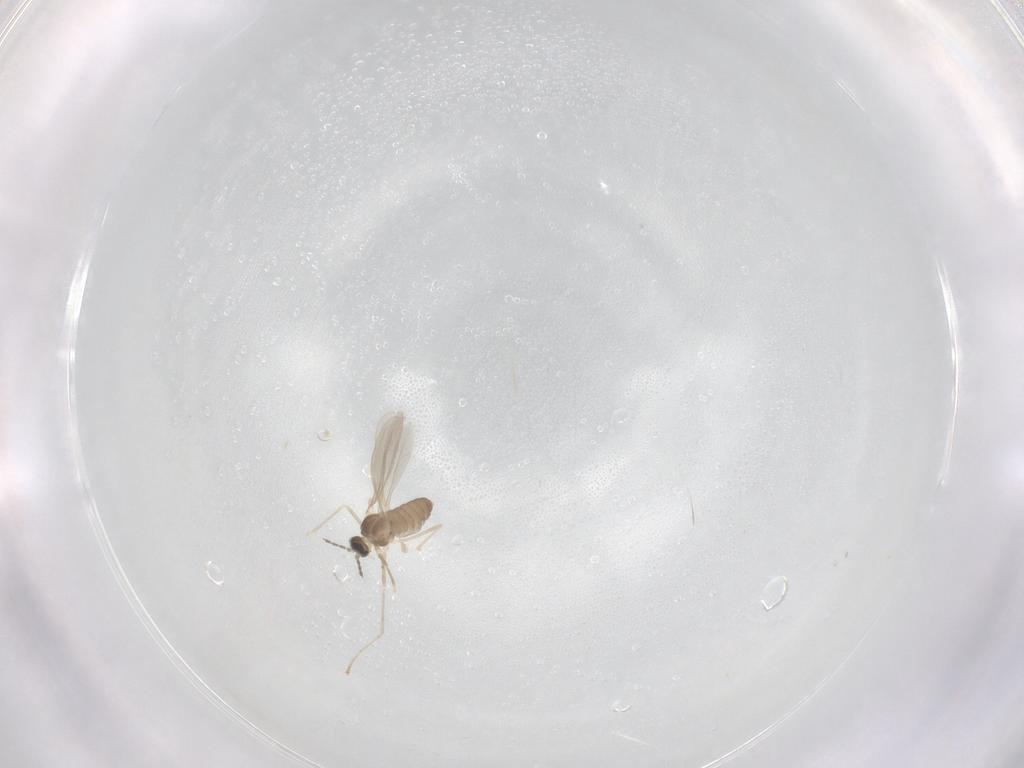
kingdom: Animalia
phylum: Arthropoda
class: Insecta
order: Diptera
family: Cecidomyiidae
